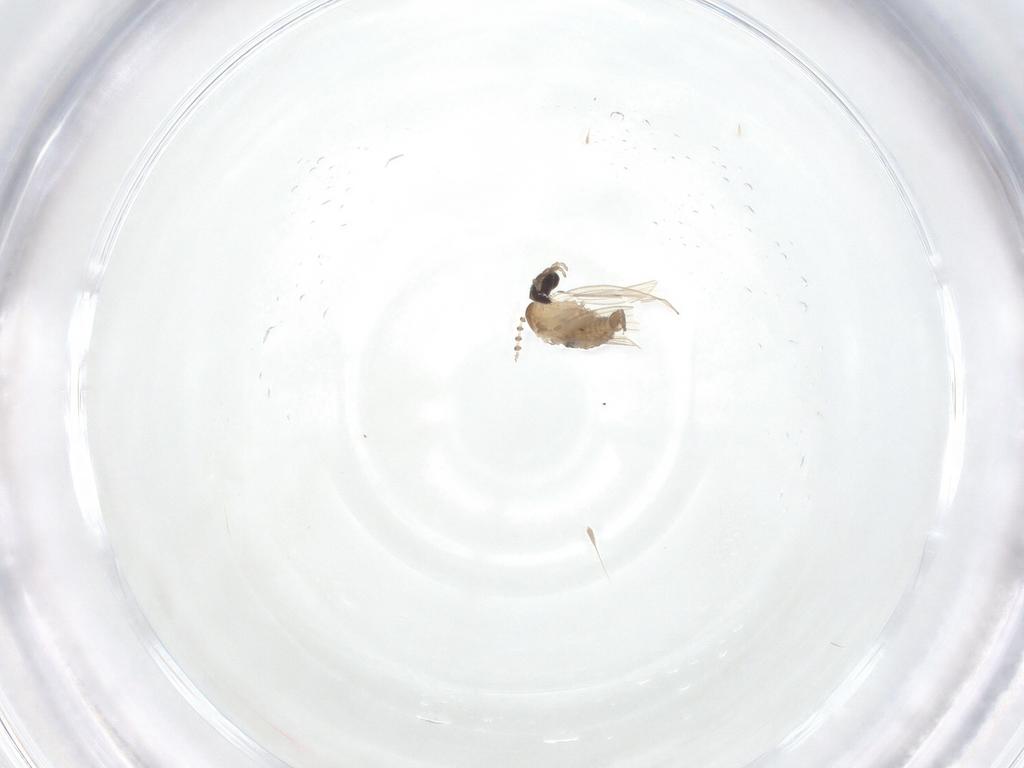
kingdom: Animalia
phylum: Arthropoda
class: Insecta
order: Diptera
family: Psychodidae
